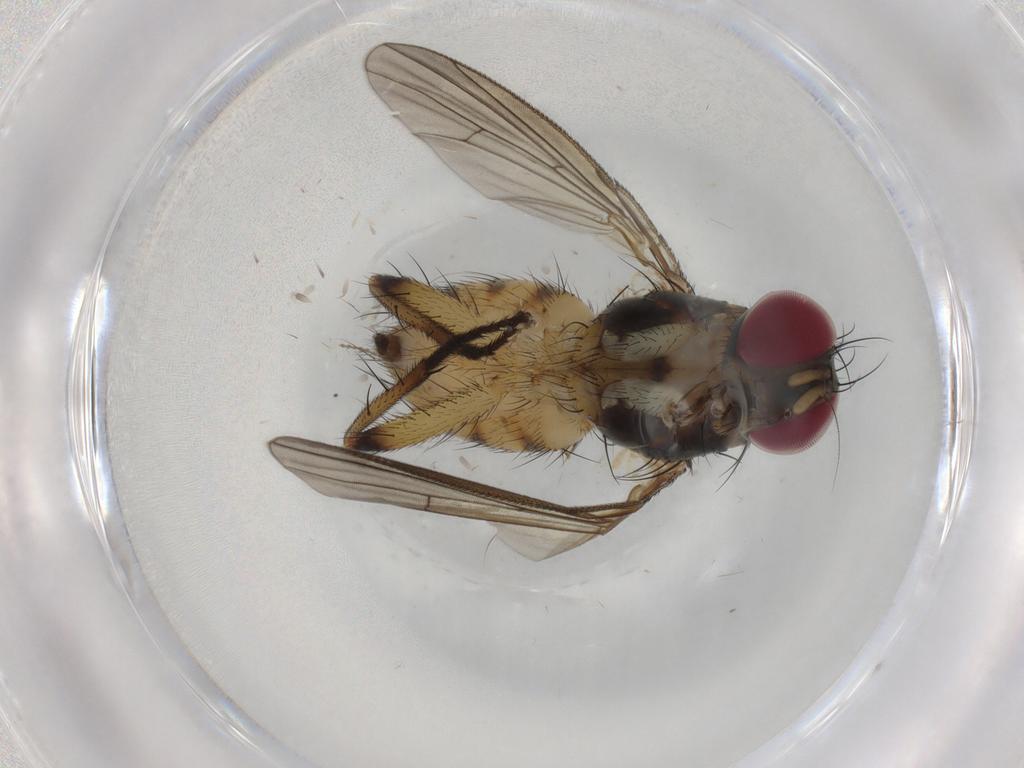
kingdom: Animalia
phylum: Arthropoda
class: Insecta
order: Diptera
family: Muscidae
